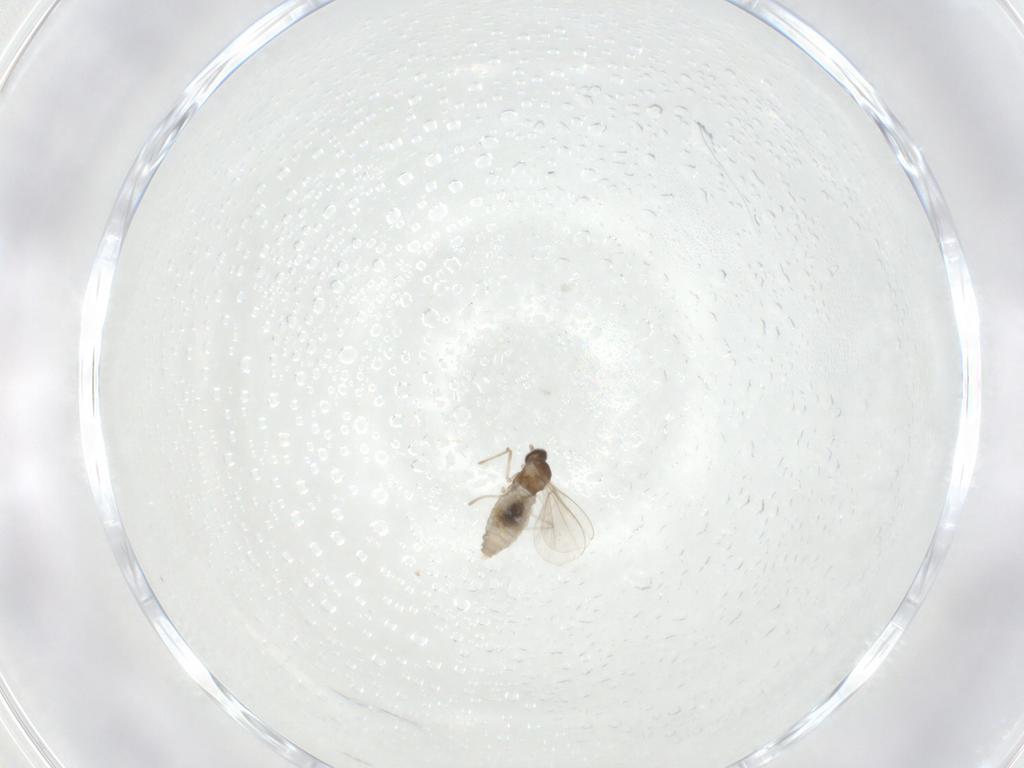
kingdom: Animalia
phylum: Arthropoda
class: Insecta
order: Diptera
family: Cecidomyiidae
